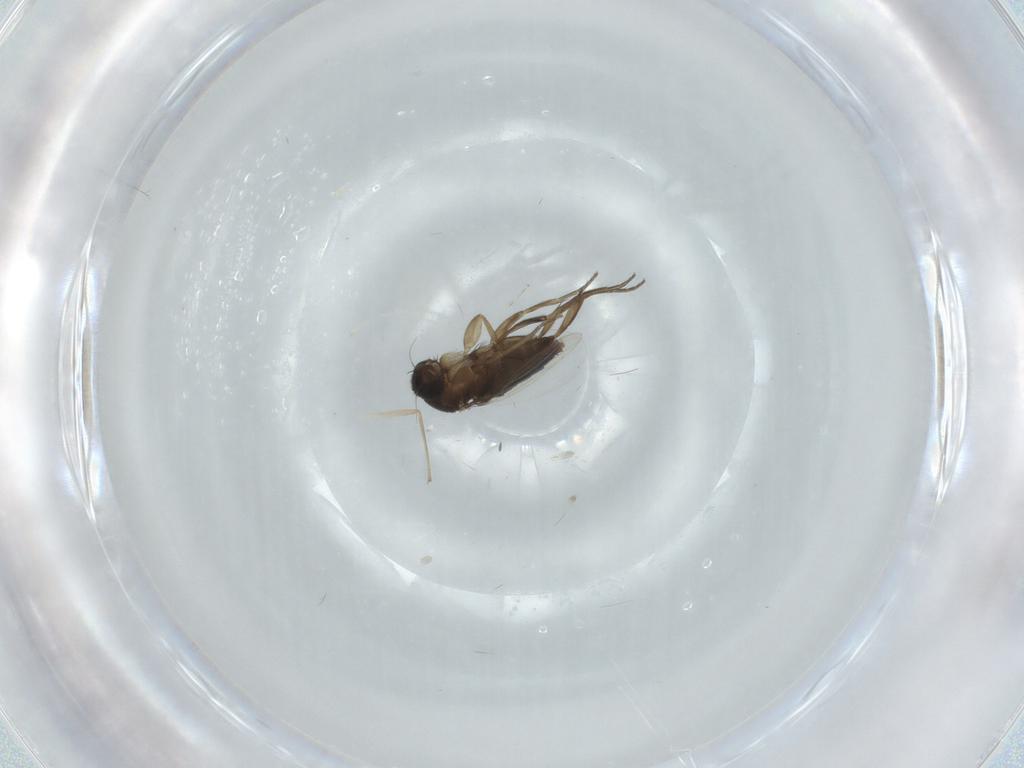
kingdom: Animalia
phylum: Arthropoda
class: Insecta
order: Diptera
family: Phoridae
